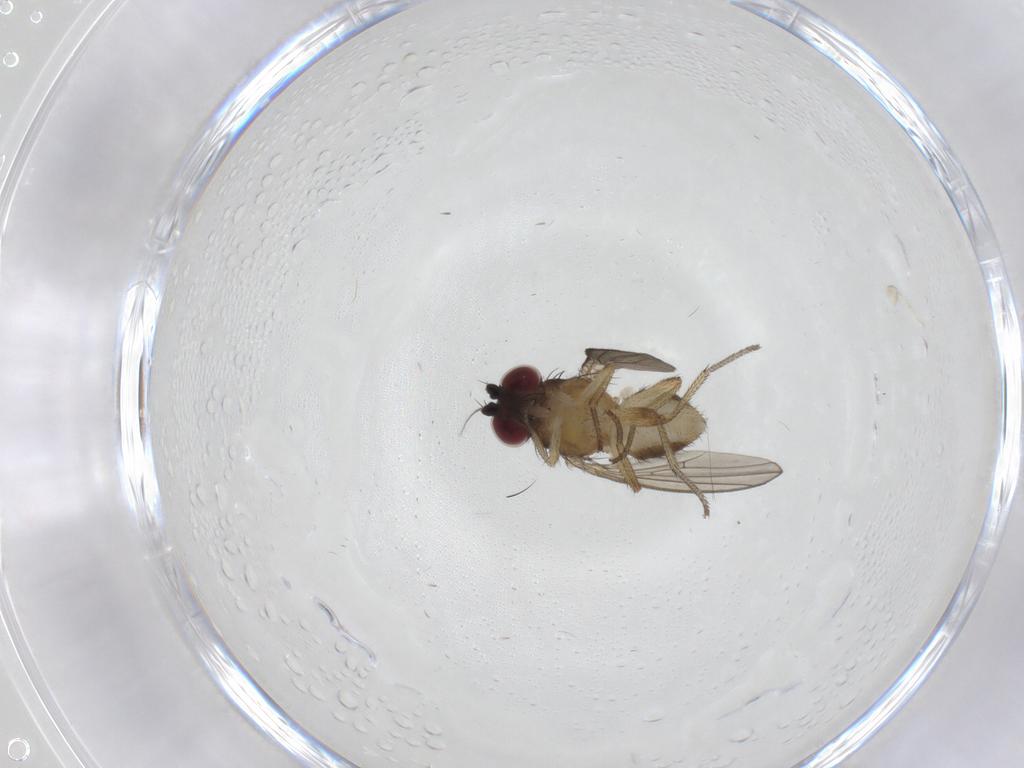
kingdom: Animalia
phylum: Arthropoda
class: Insecta
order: Diptera
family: Lauxaniidae
